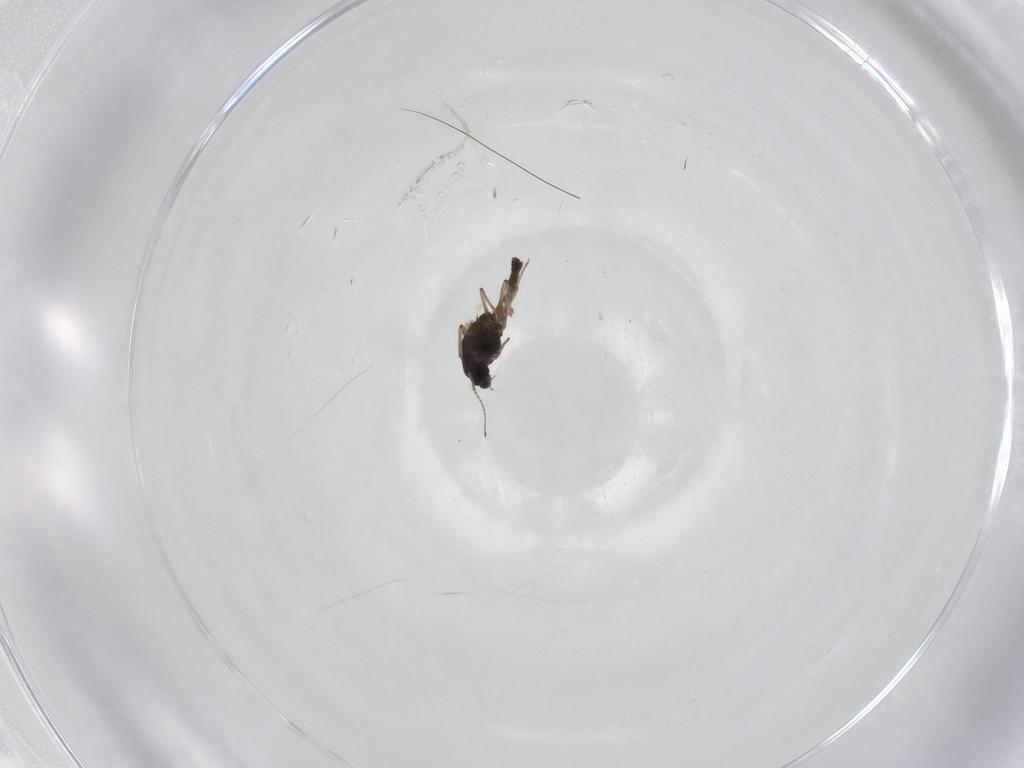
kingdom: Animalia
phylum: Arthropoda
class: Insecta
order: Diptera
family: Chironomidae
